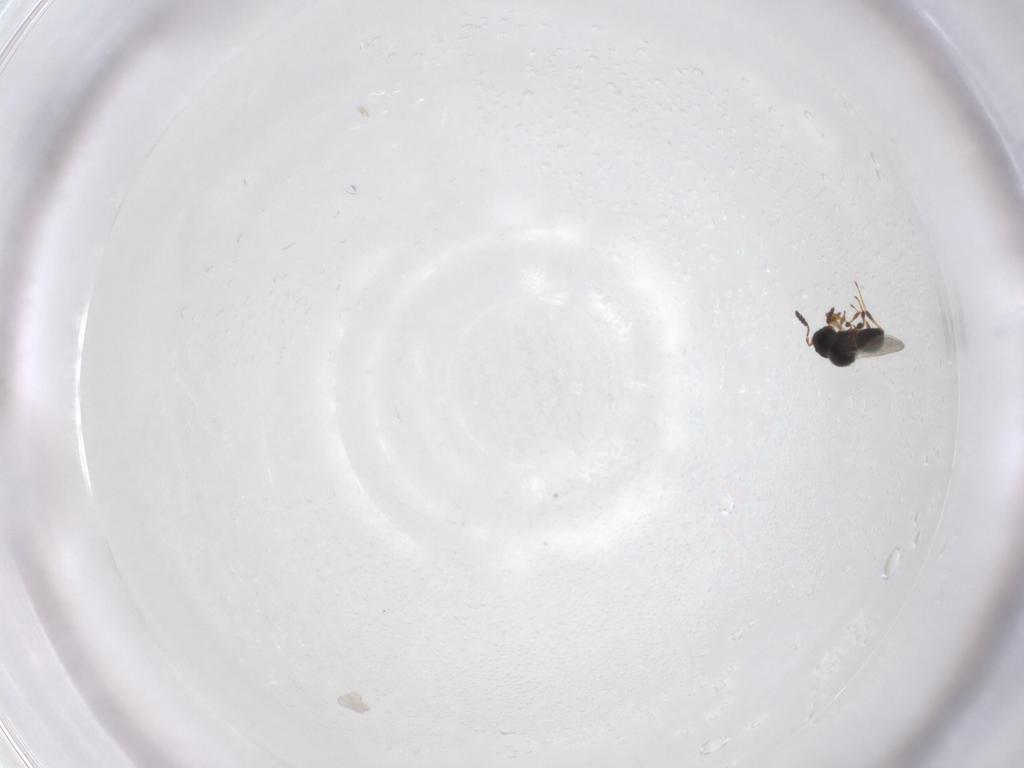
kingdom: Animalia
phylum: Arthropoda
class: Insecta
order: Hymenoptera
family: Platygastridae
